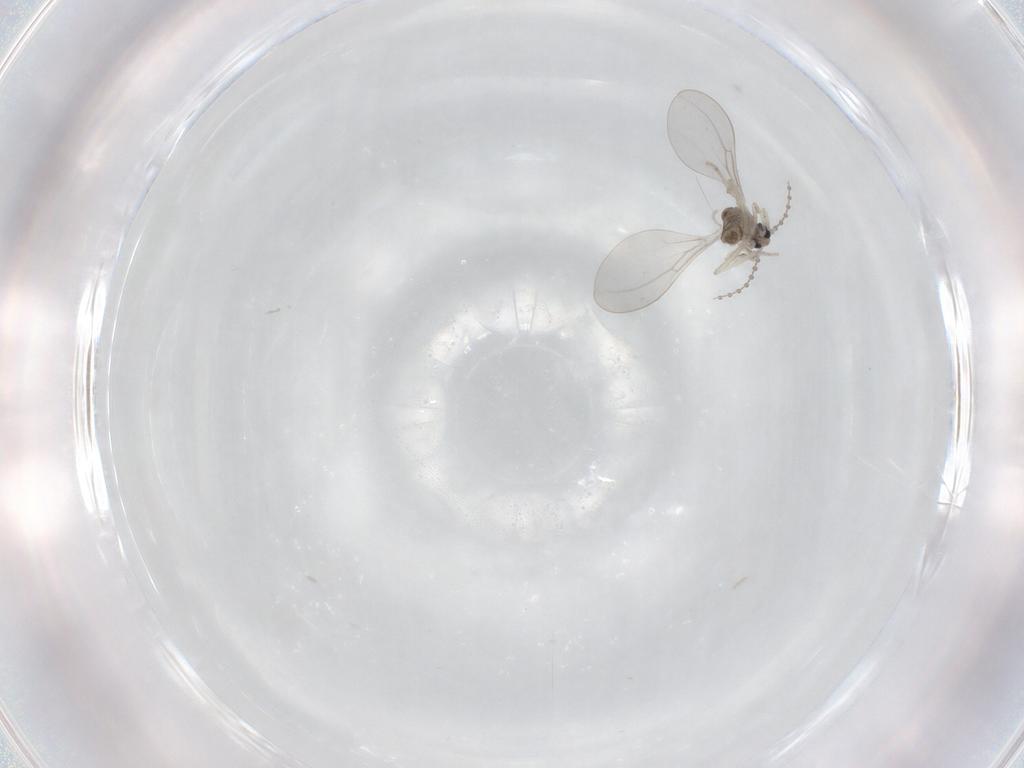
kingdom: Animalia
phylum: Arthropoda
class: Insecta
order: Diptera
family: Cecidomyiidae
